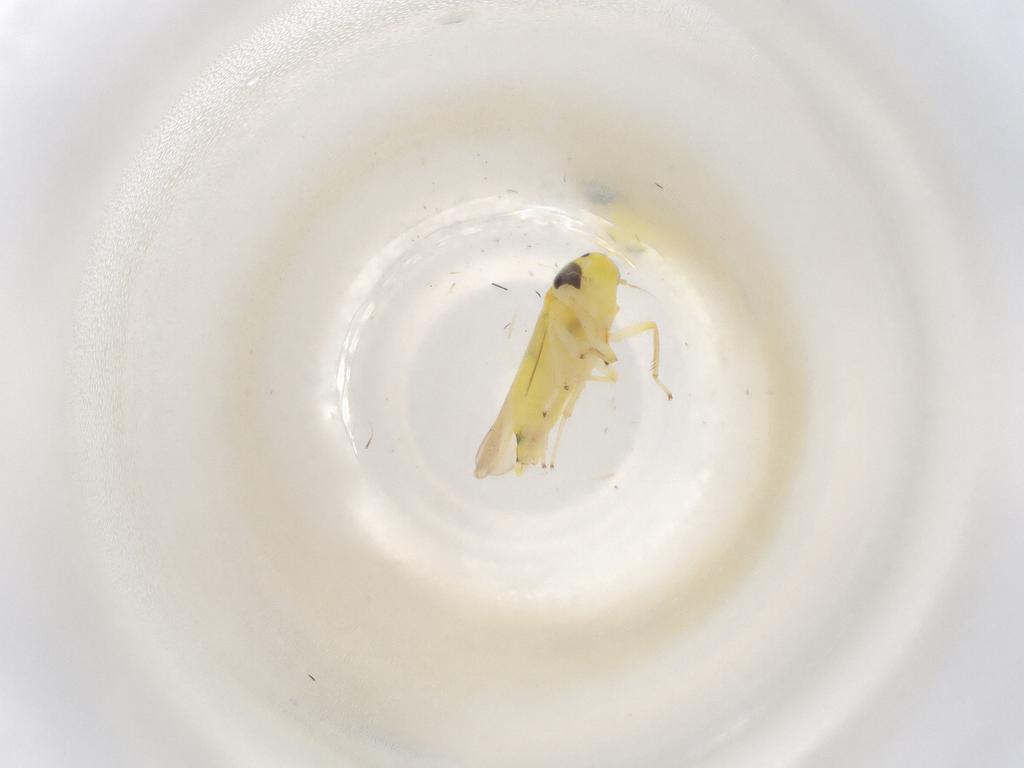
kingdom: Animalia
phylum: Arthropoda
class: Insecta
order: Hemiptera
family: Cicadellidae
